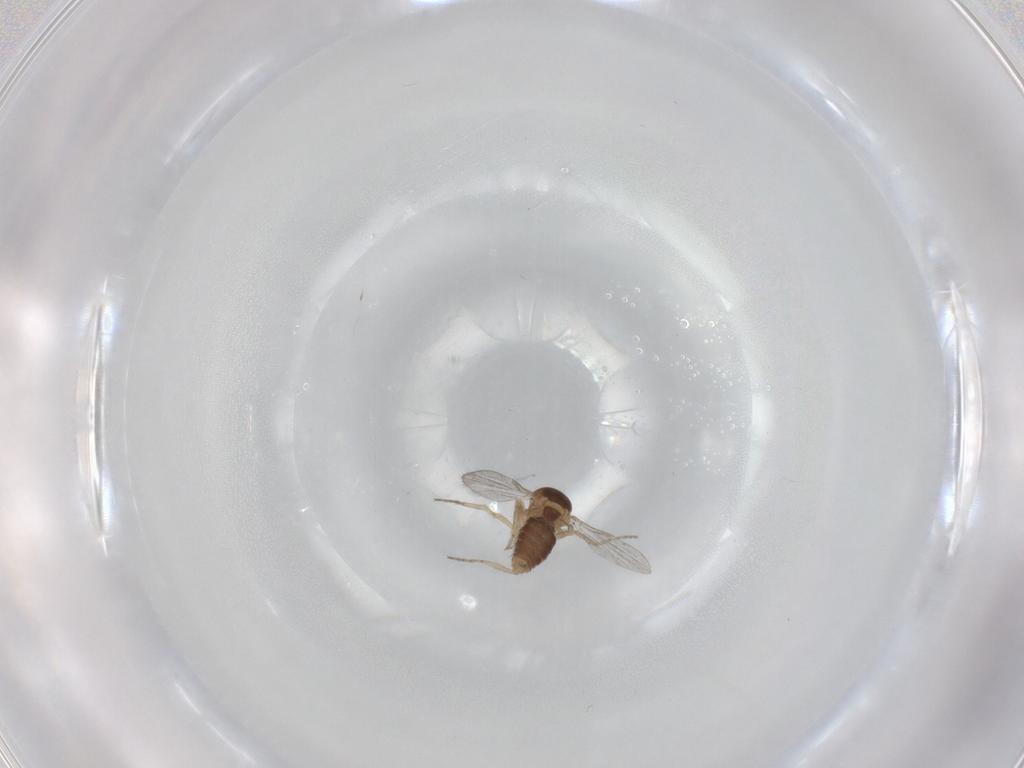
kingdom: Animalia
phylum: Arthropoda
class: Insecta
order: Diptera
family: Ceratopogonidae
